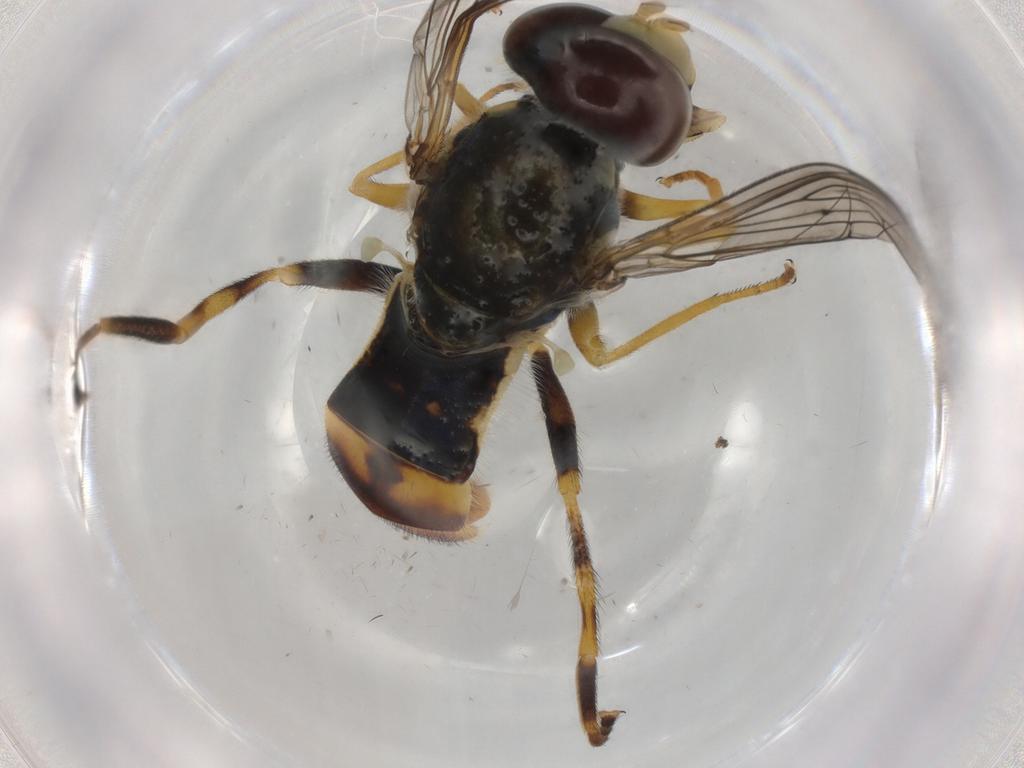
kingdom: Animalia
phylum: Arthropoda
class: Insecta
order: Diptera
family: Syrphidae
